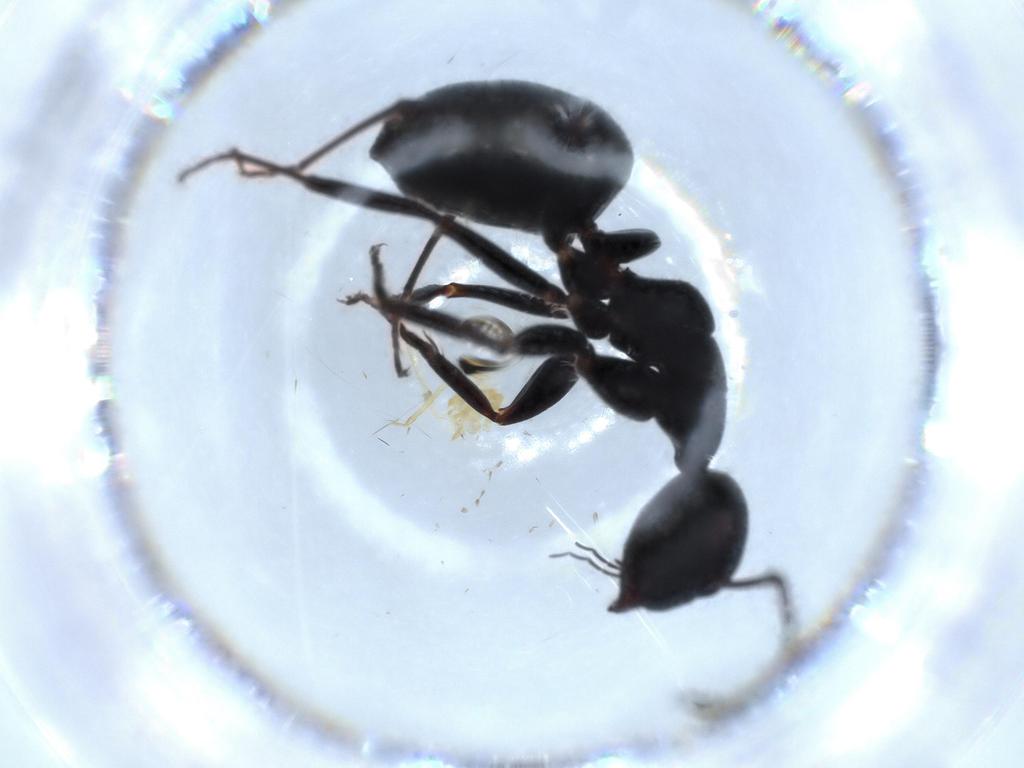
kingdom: Animalia
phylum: Arthropoda
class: Insecta
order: Hymenoptera
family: Formicidae
